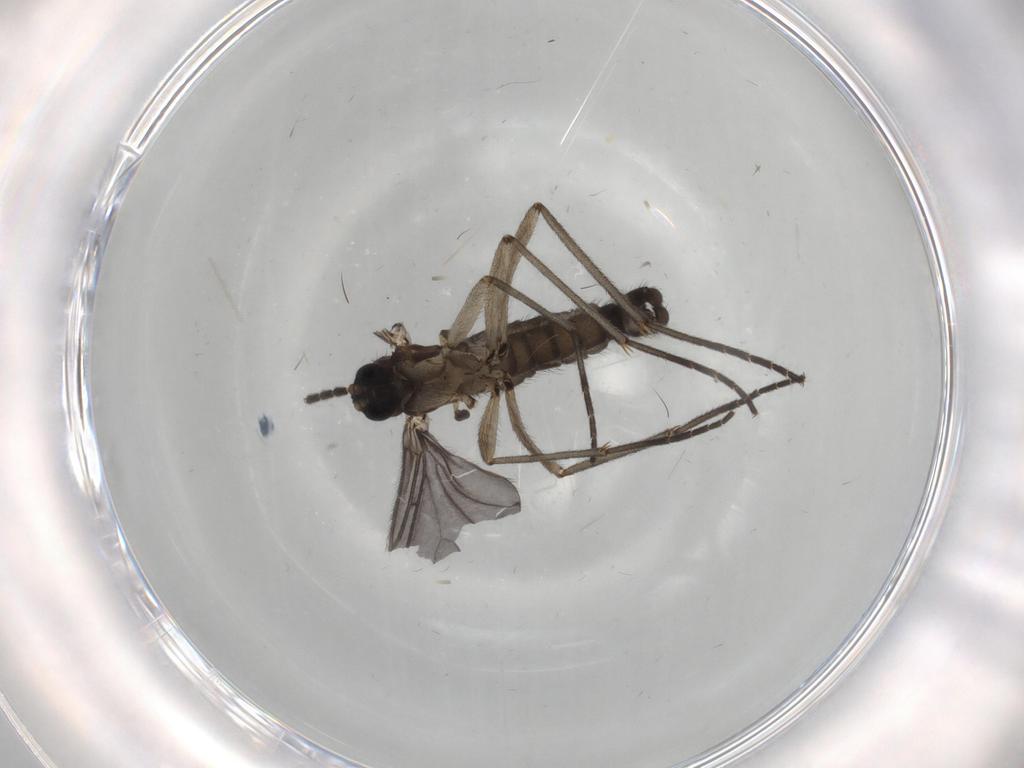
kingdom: Animalia
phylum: Arthropoda
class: Insecta
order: Diptera
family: Sciaridae
